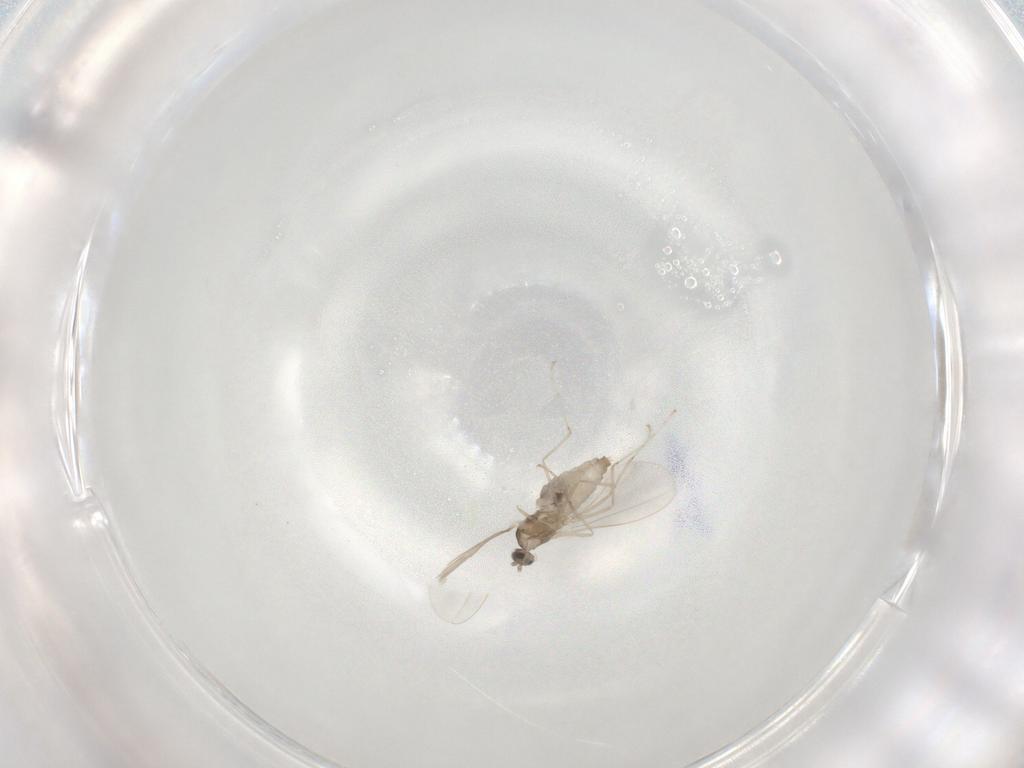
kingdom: Animalia
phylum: Arthropoda
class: Insecta
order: Diptera
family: Cecidomyiidae
